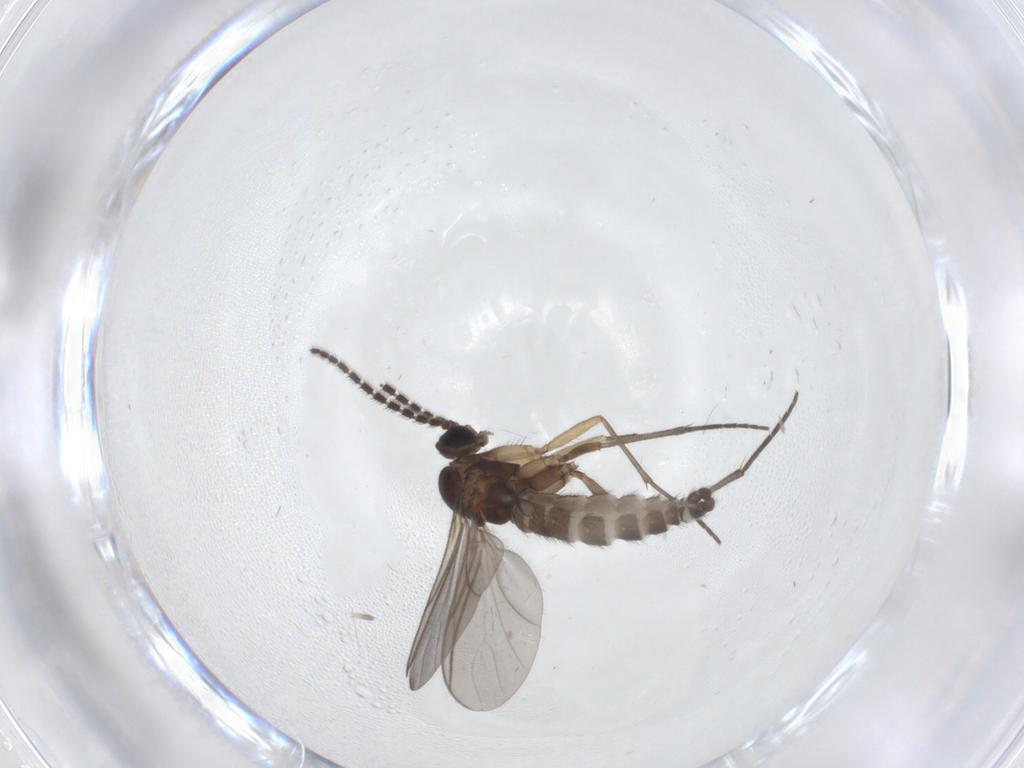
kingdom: Animalia
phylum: Arthropoda
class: Insecta
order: Diptera
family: Sciaridae
